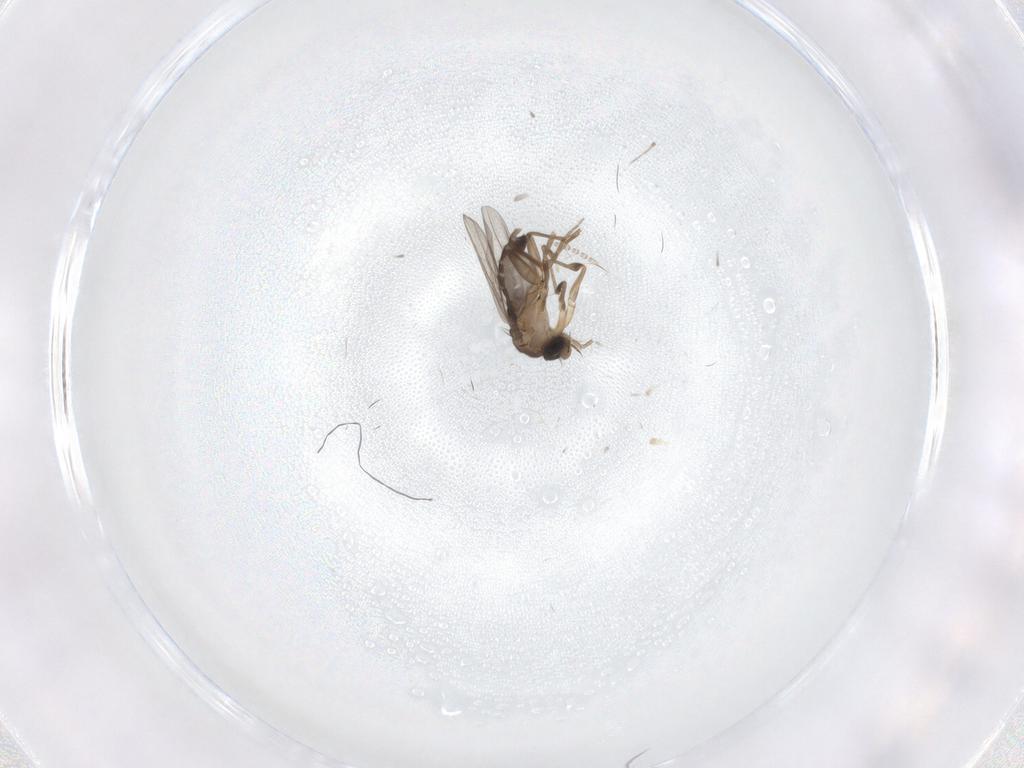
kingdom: Animalia
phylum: Arthropoda
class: Insecta
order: Diptera
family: Phoridae
